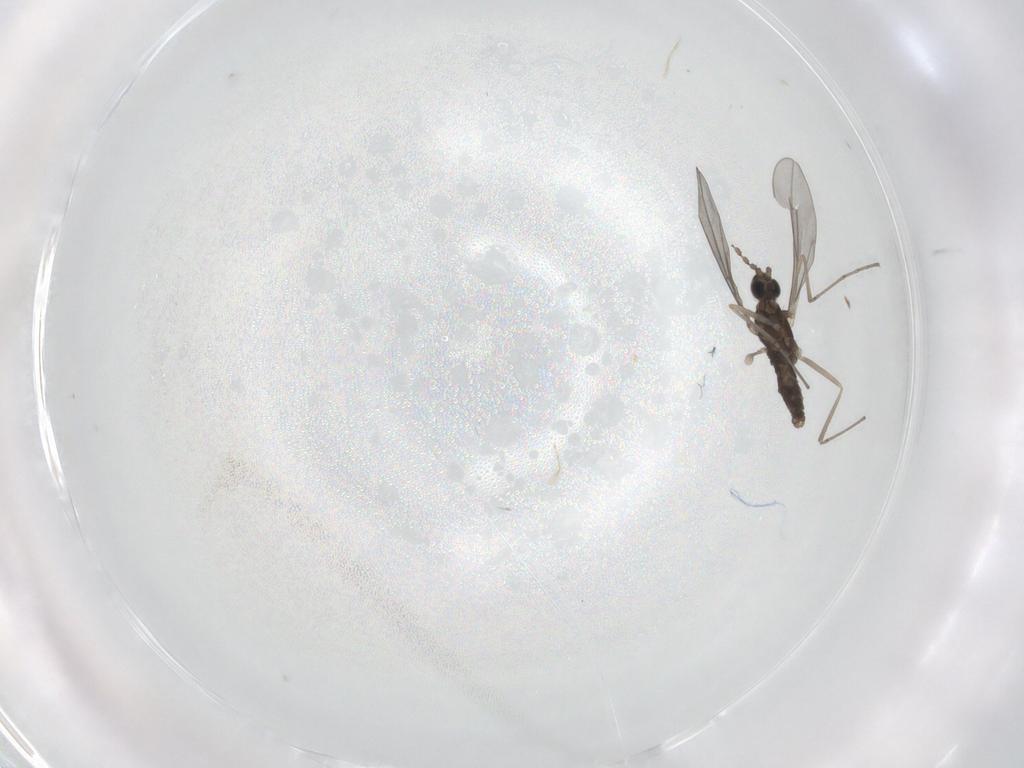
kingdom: Animalia
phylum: Arthropoda
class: Insecta
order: Diptera
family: Cecidomyiidae
